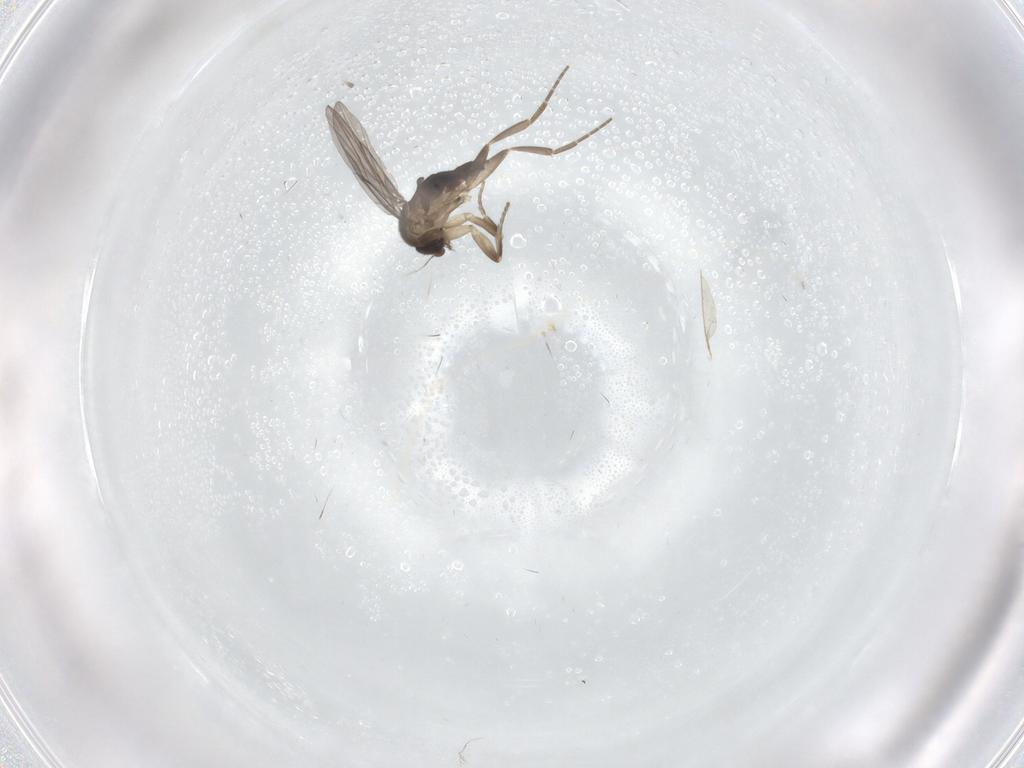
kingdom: Animalia
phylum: Arthropoda
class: Insecta
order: Diptera
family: Cecidomyiidae
